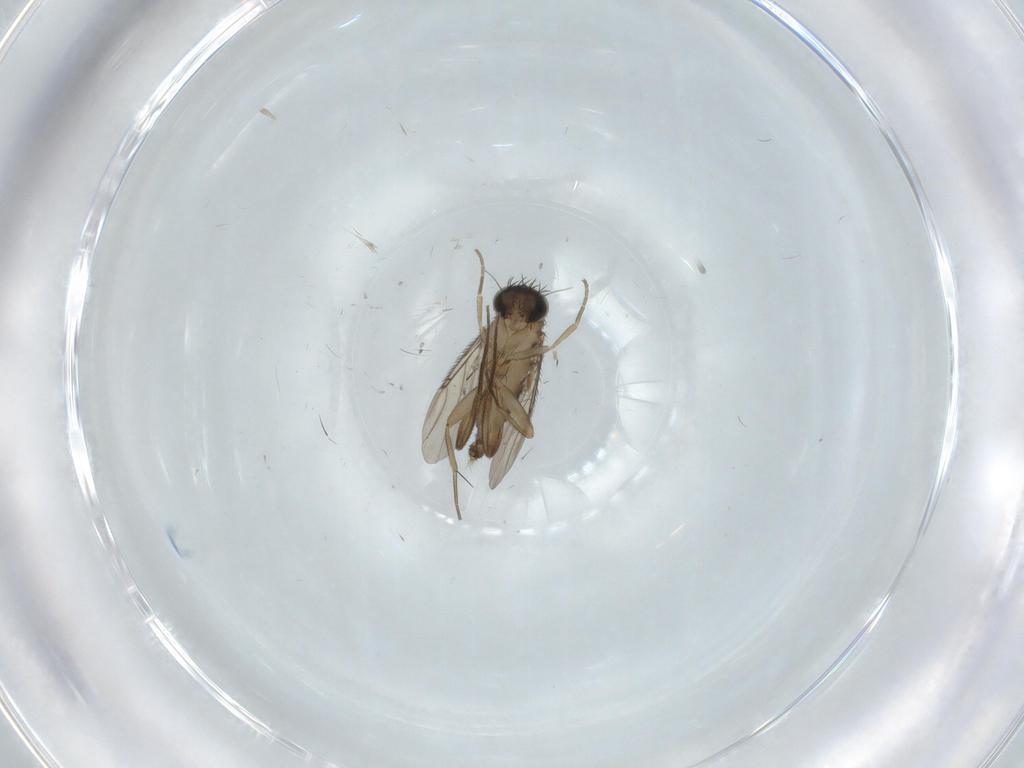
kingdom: Animalia
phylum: Arthropoda
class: Insecta
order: Diptera
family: Phoridae
